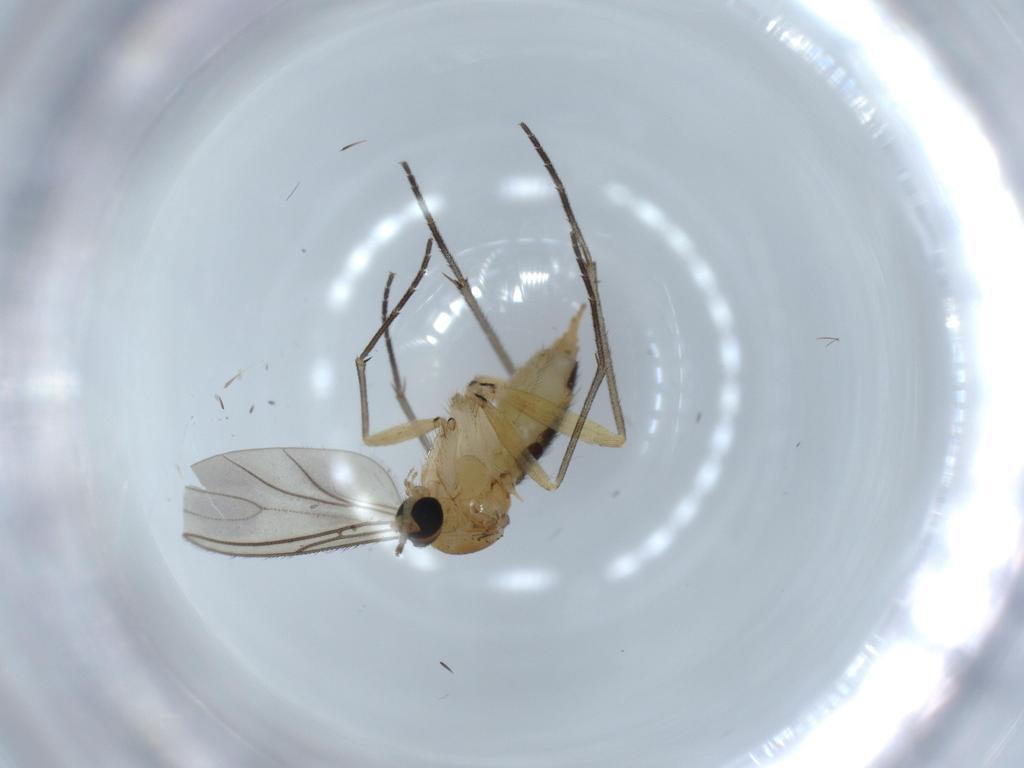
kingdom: Animalia
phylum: Arthropoda
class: Insecta
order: Diptera
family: Sciaridae
